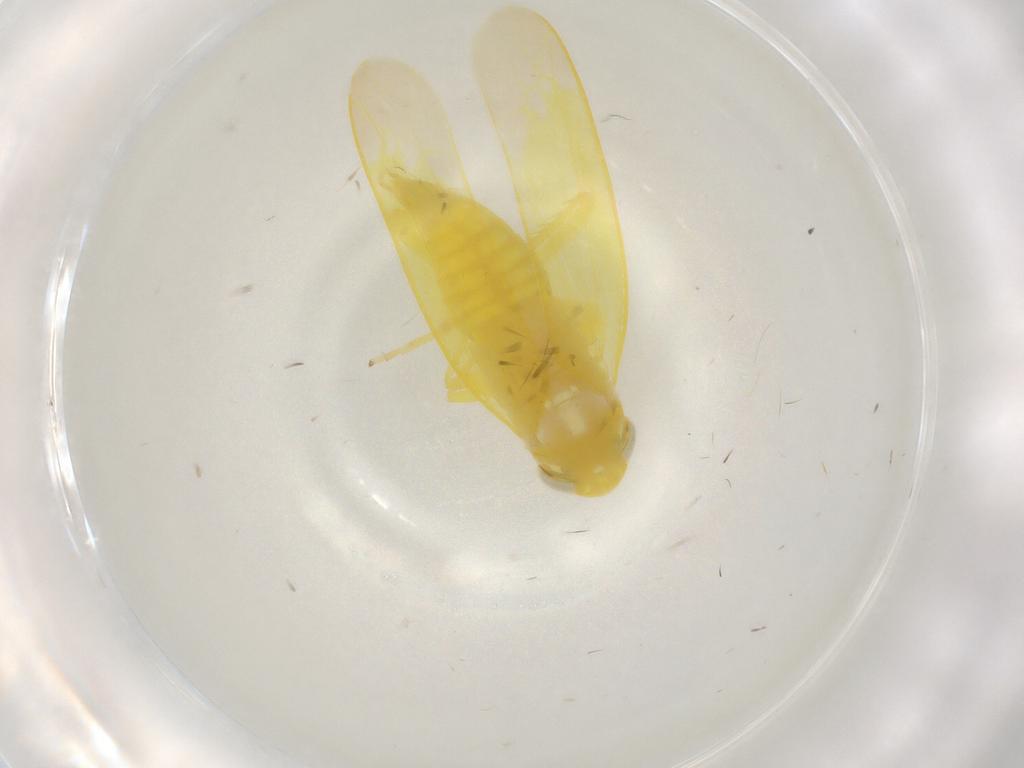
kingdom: Animalia
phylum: Arthropoda
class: Insecta
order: Hemiptera
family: Cicadellidae
